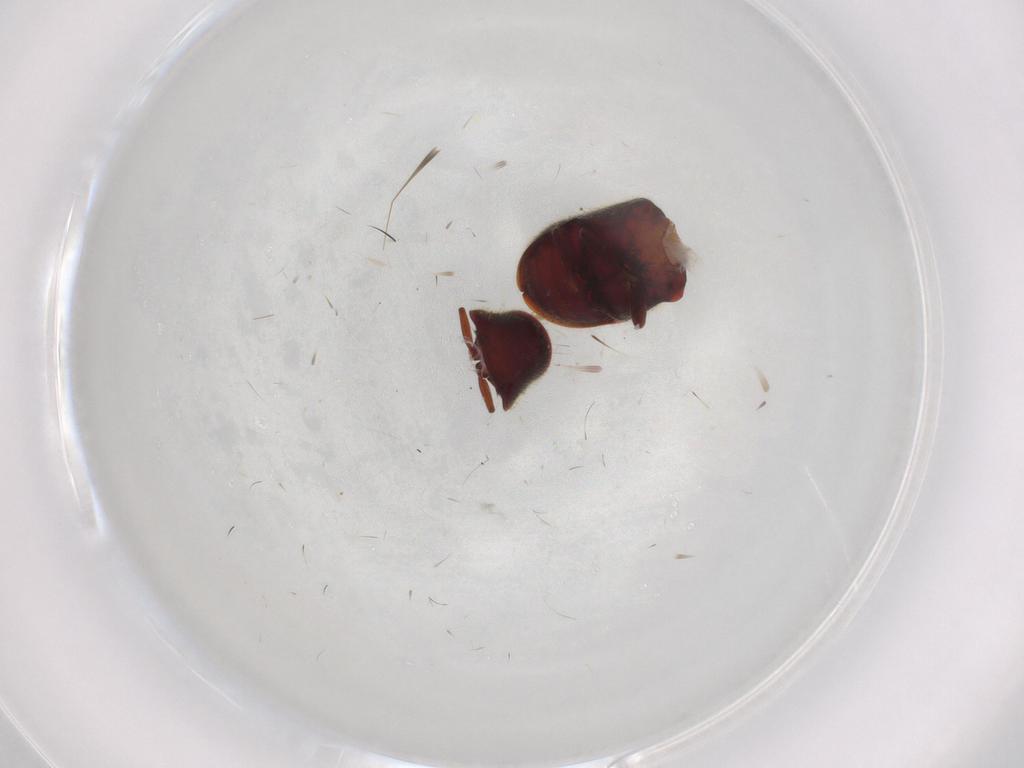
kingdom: Animalia
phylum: Arthropoda
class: Insecta
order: Coleoptera
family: Ptinidae
